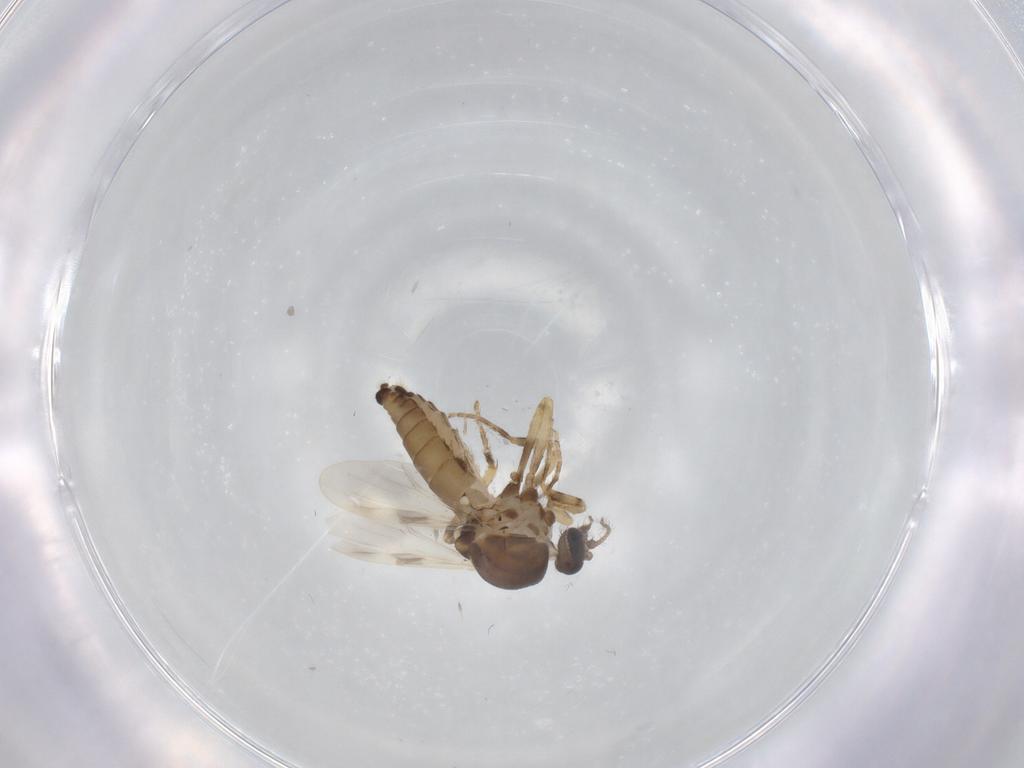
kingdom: Animalia
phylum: Arthropoda
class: Insecta
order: Diptera
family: Ceratopogonidae
